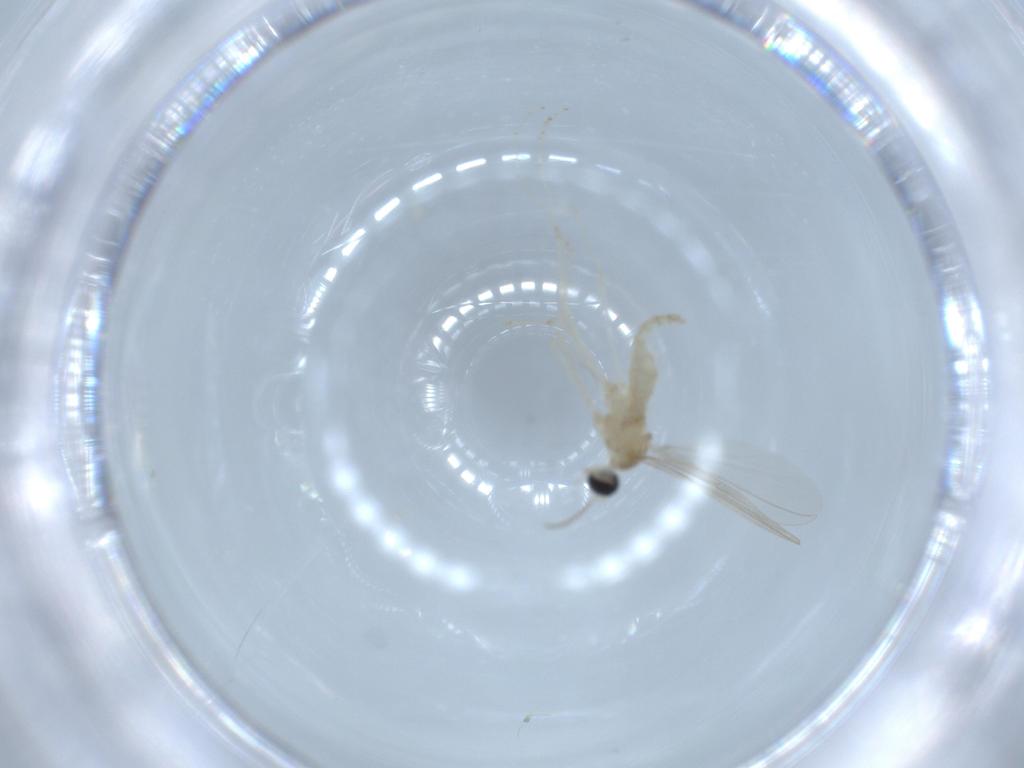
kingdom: Animalia
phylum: Arthropoda
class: Insecta
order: Diptera
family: Cecidomyiidae
